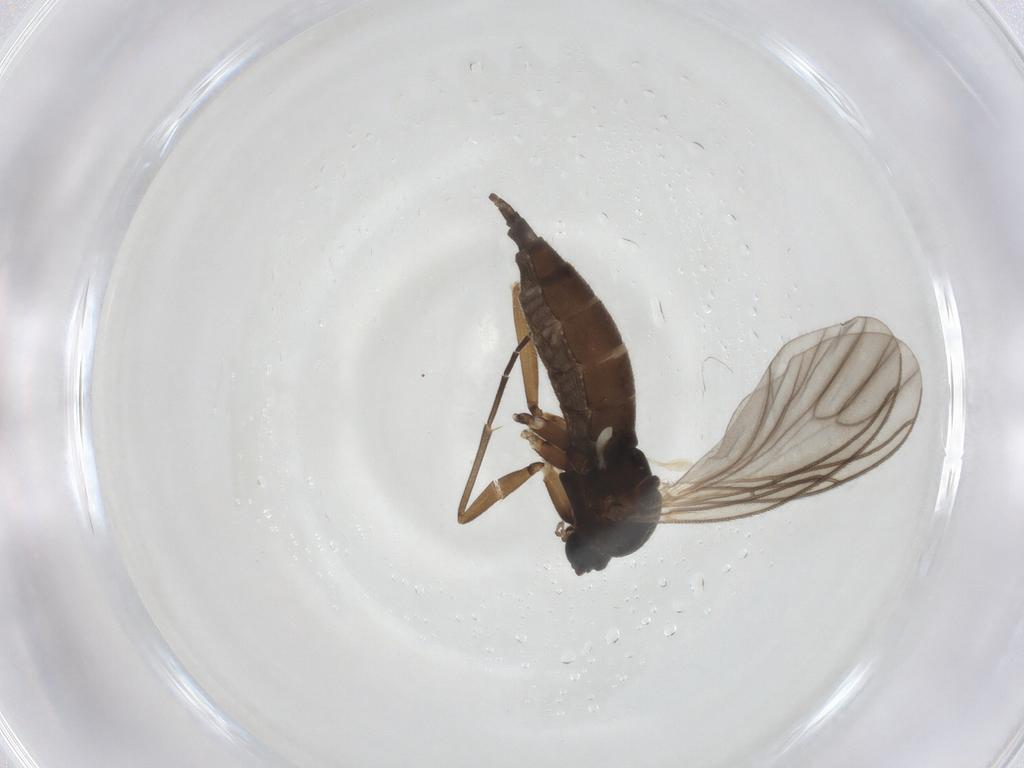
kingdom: Animalia
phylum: Arthropoda
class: Insecta
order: Diptera
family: Sciaridae
